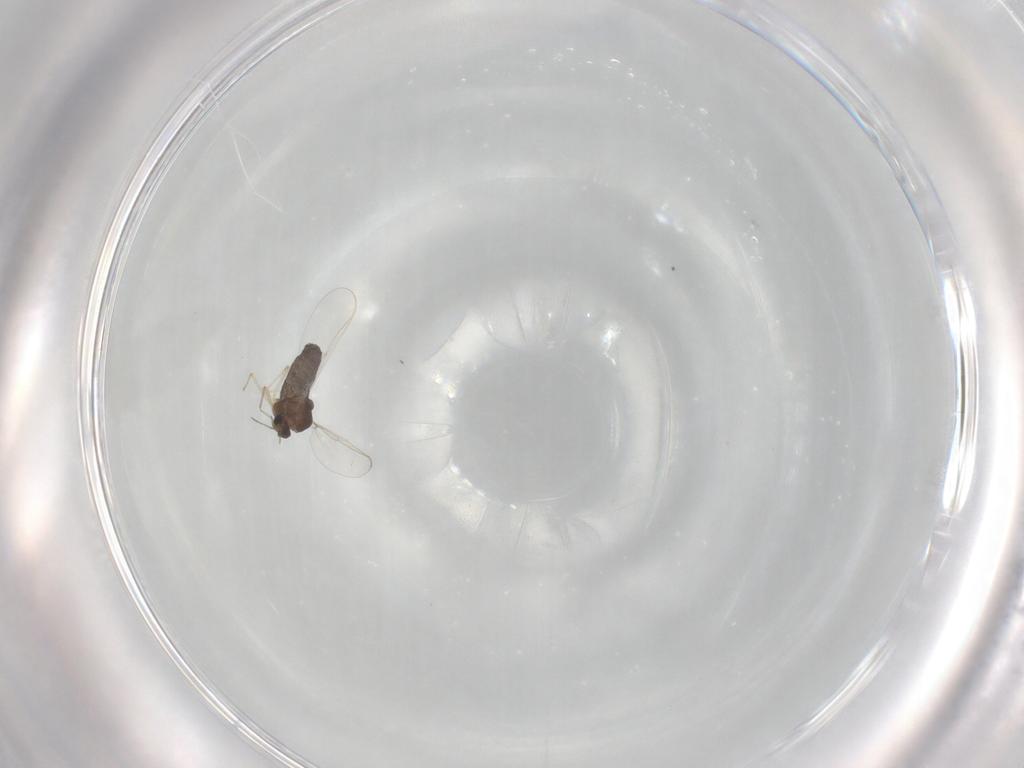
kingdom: Animalia
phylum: Arthropoda
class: Insecta
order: Diptera
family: Chironomidae
